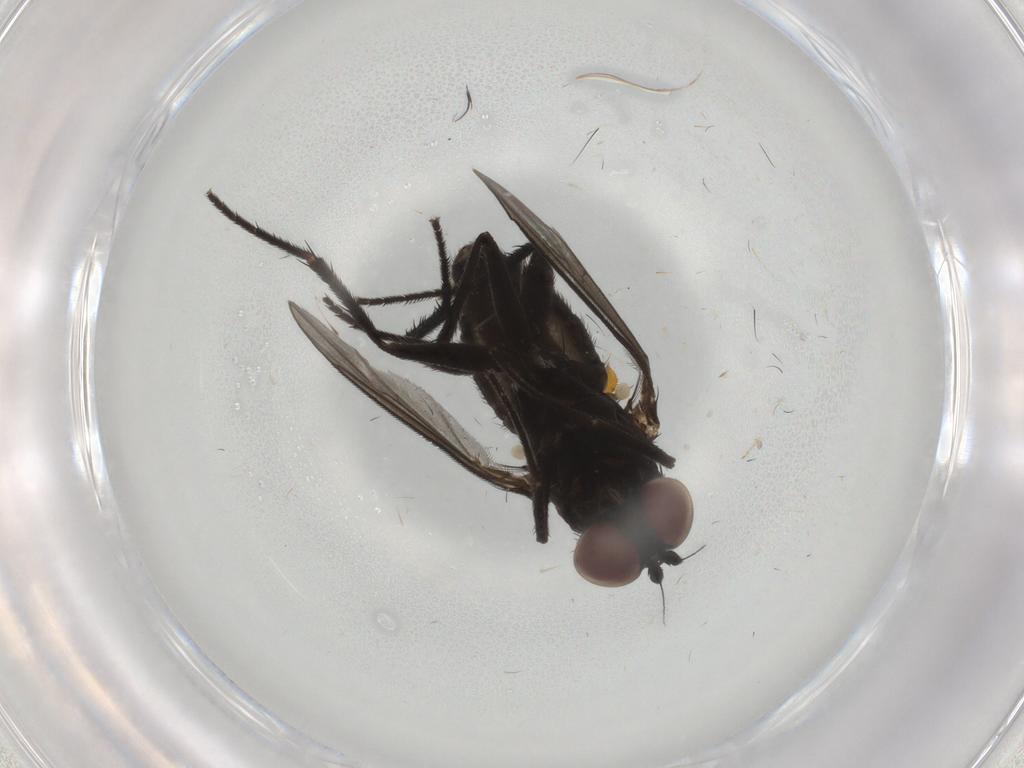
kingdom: Animalia
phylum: Arthropoda
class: Insecta
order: Diptera
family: Dolichopodidae
